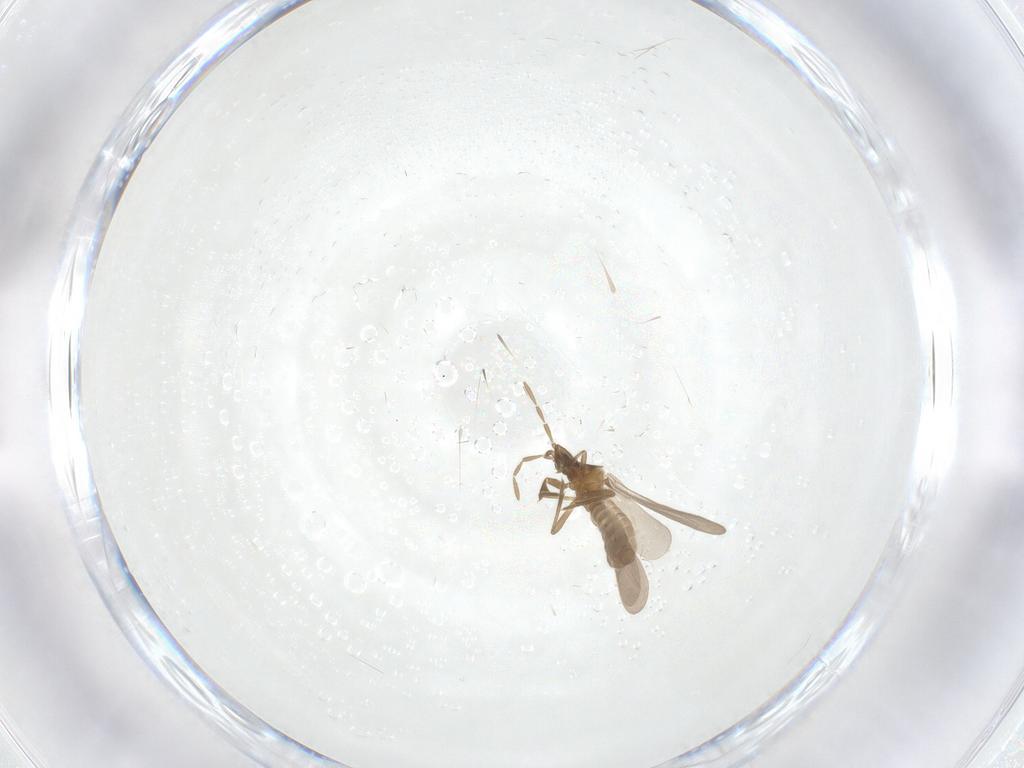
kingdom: Animalia
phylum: Arthropoda
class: Insecta
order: Hemiptera
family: Enicocephalidae
